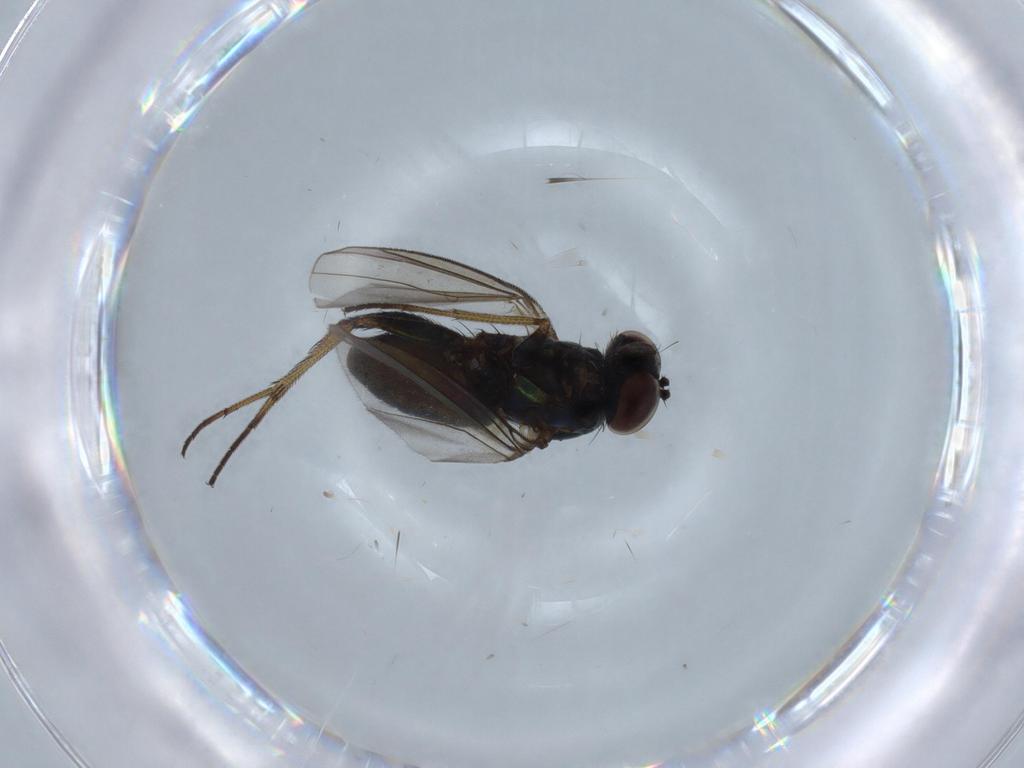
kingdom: Animalia
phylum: Arthropoda
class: Insecta
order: Diptera
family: Dolichopodidae
